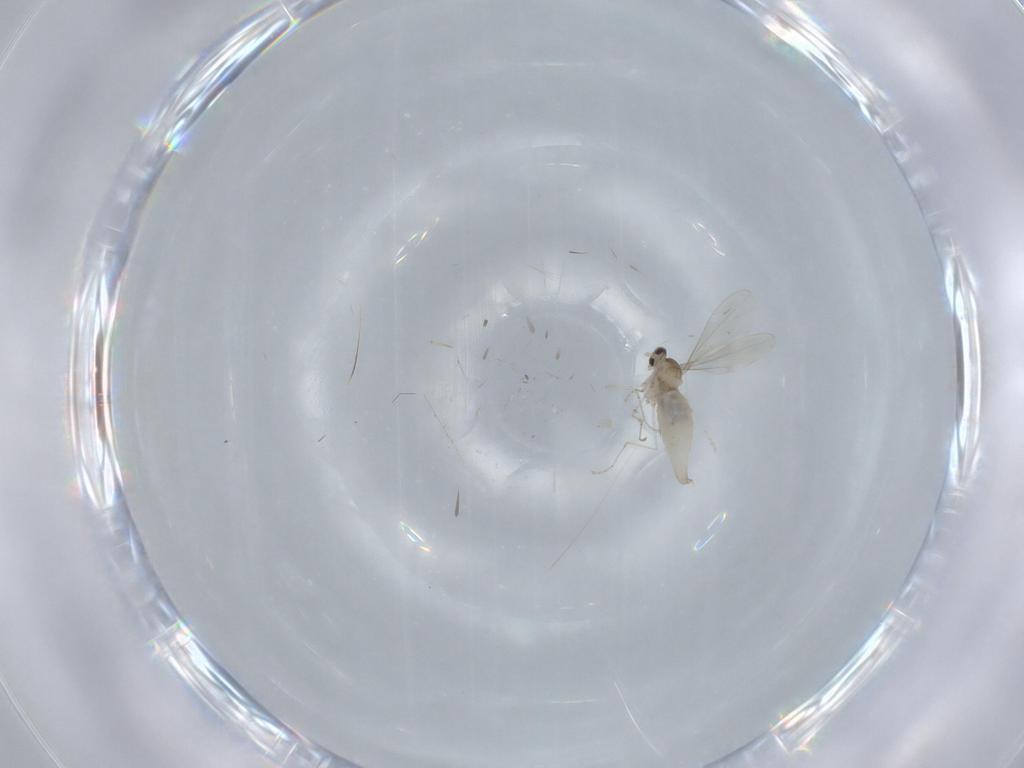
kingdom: Animalia
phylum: Arthropoda
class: Insecta
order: Diptera
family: Cecidomyiidae
